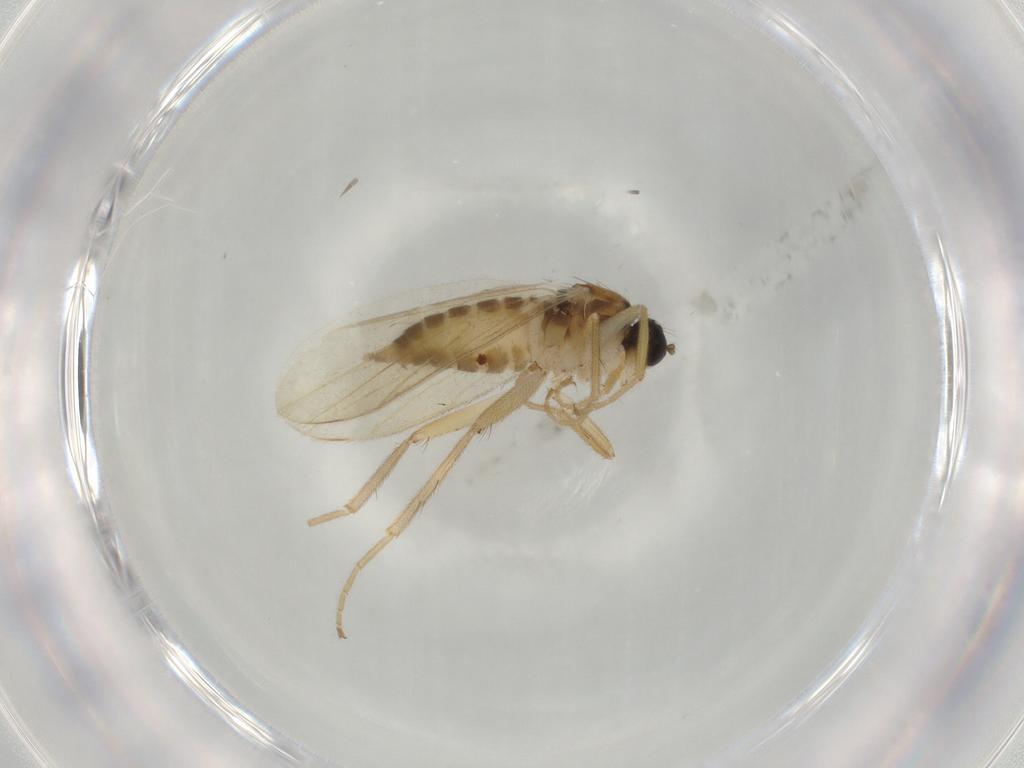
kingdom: Animalia
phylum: Arthropoda
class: Insecta
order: Diptera
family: Hybotidae
